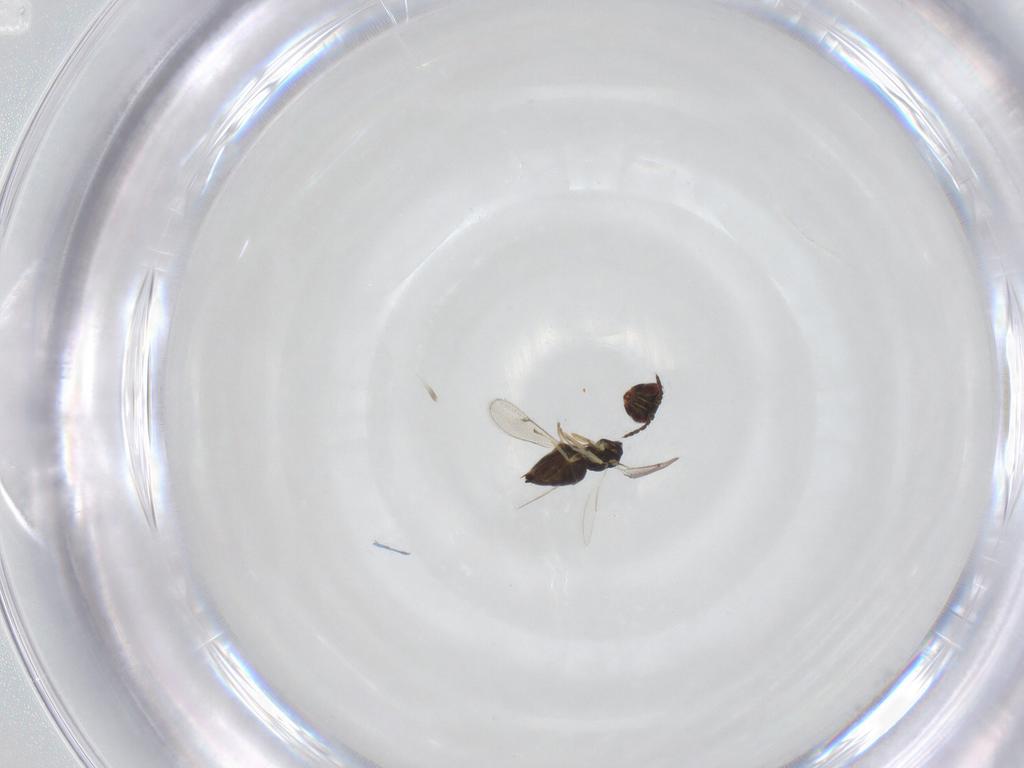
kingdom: Animalia
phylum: Arthropoda
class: Insecta
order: Hymenoptera
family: Eulophidae
